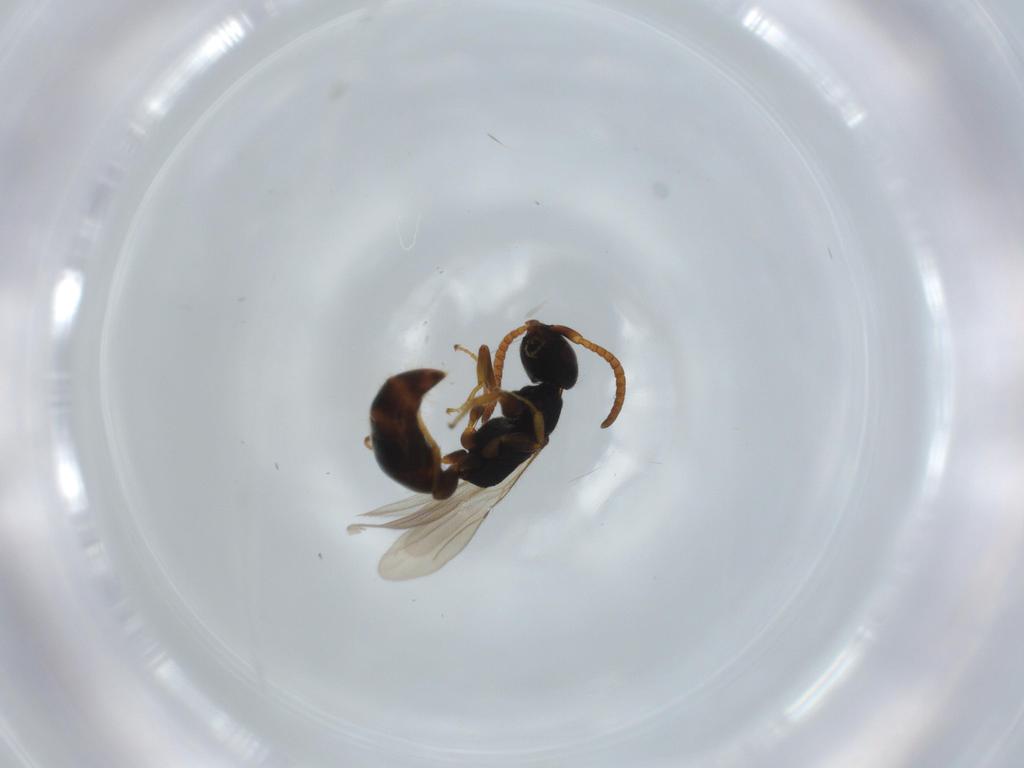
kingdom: Animalia
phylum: Arthropoda
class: Insecta
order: Hymenoptera
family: Bethylidae
